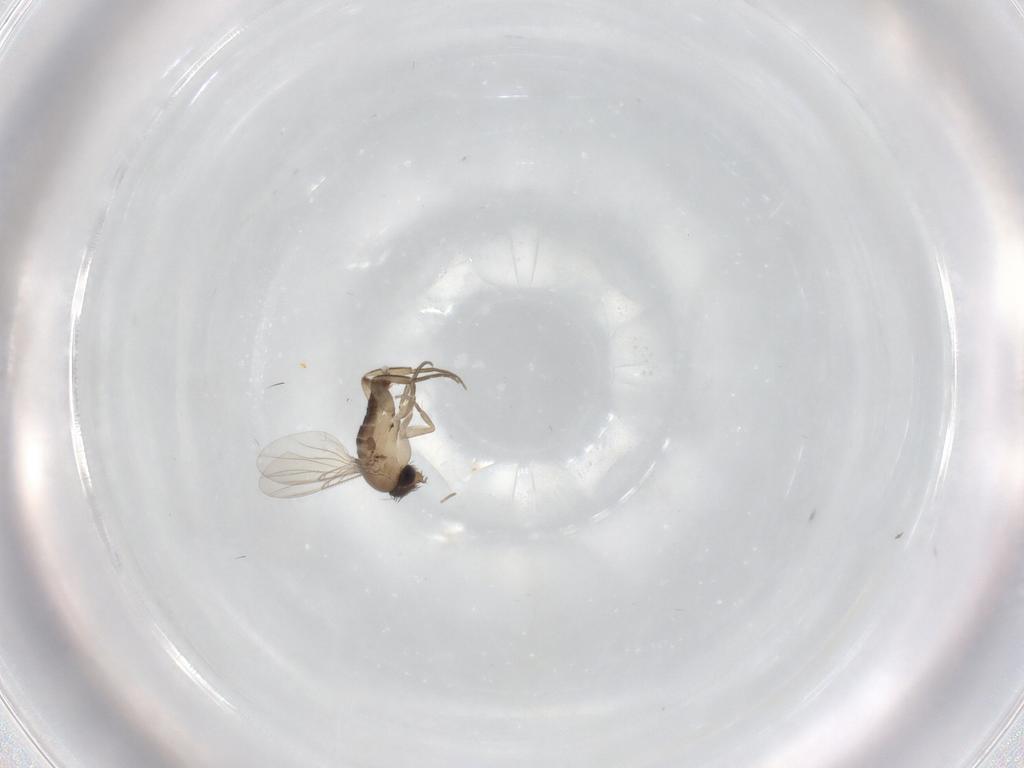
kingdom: Animalia
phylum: Arthropoda
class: Insecta
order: Diptera
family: Phoridae
